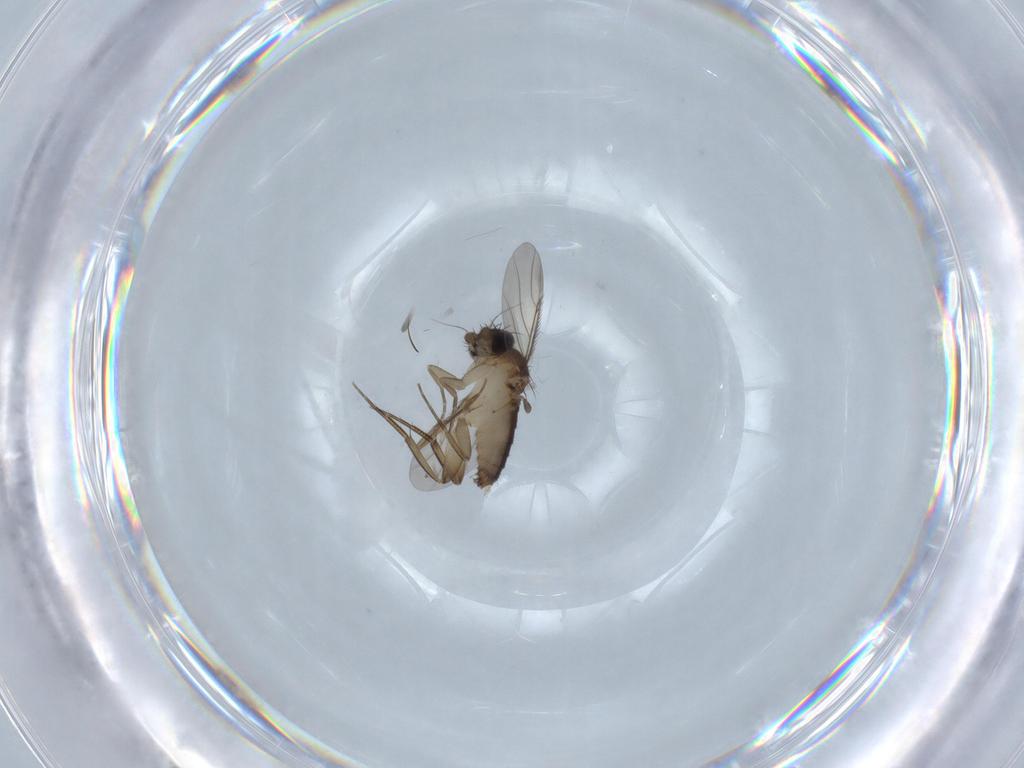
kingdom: Animalia
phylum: Arthropoda
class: Insecta
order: Diptera
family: Phoridae
